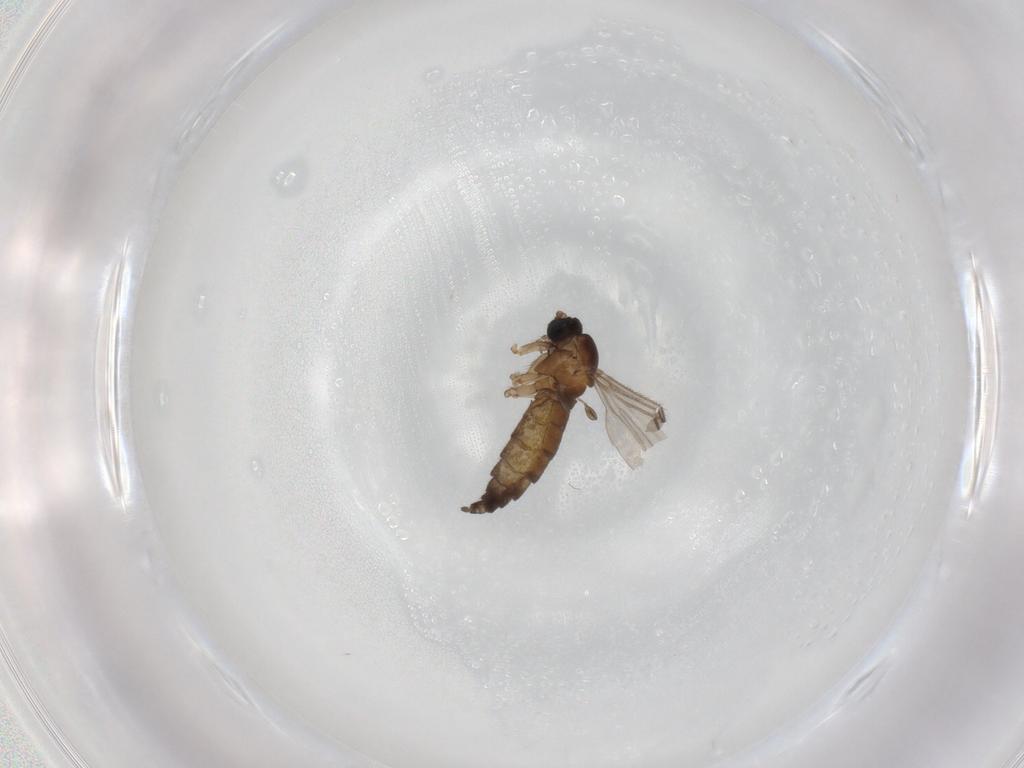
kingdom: Animalia
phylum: Arthropoda
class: Insecta
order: Diptera
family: Sciaridae
